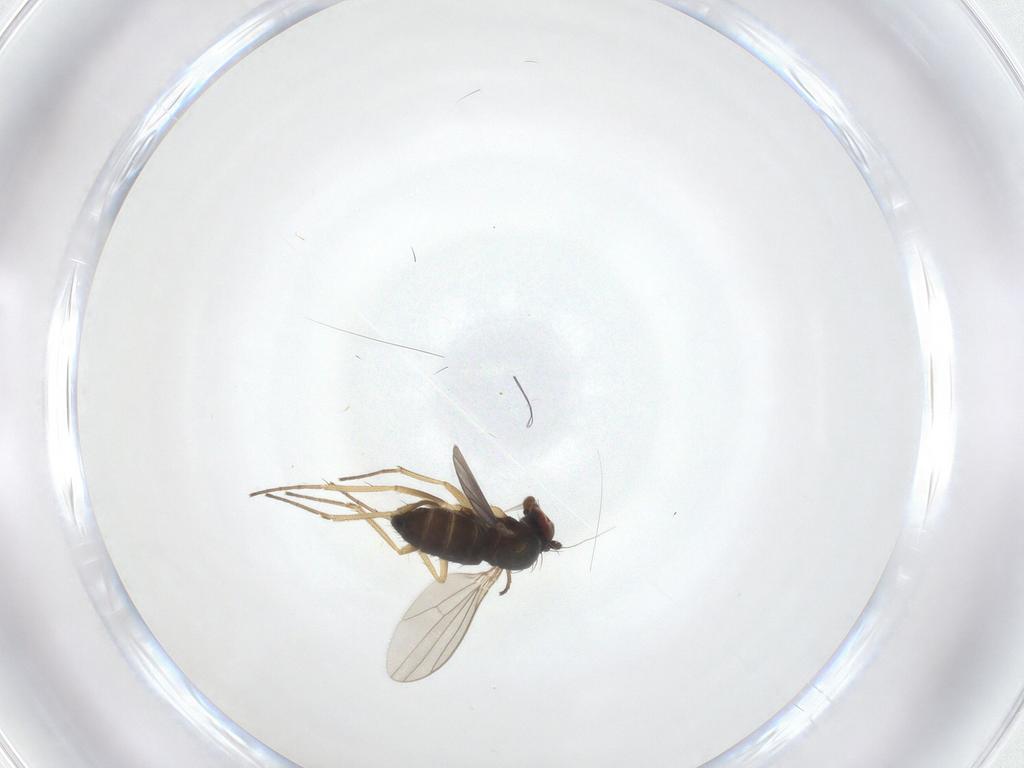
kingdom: Animalia
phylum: Arthropoda
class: Insecta
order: Diptera
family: Dolichopodidae
